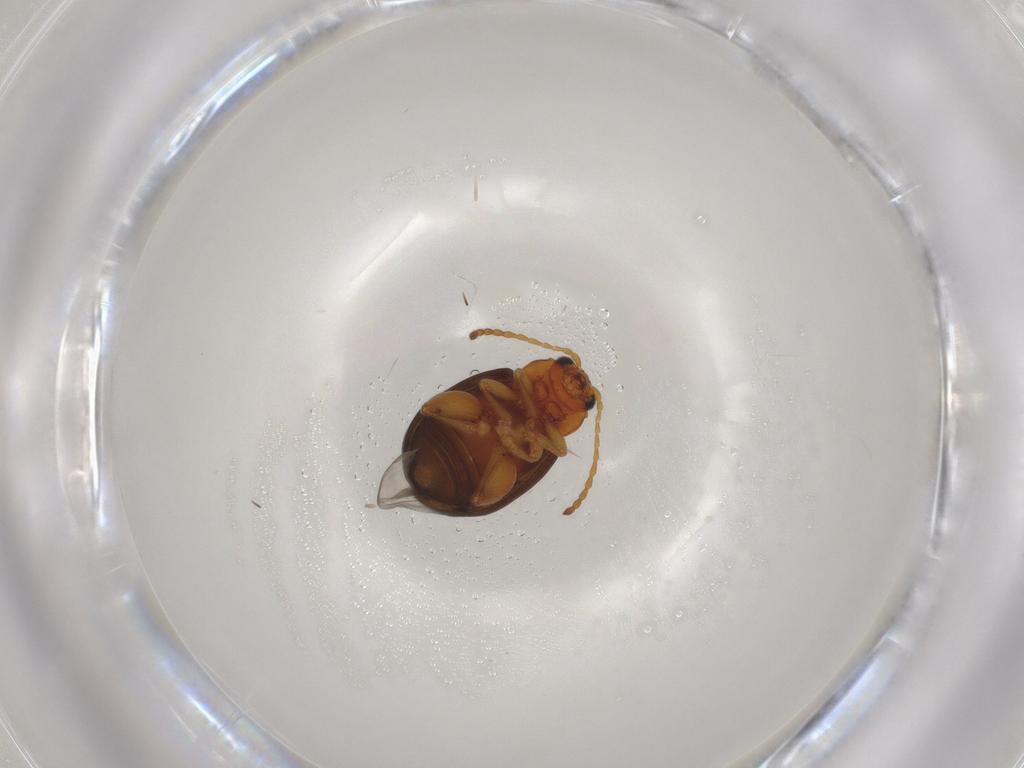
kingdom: Animalia
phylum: Arthropoda
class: Insecta
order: Coleoptera
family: Chrysomelidae
